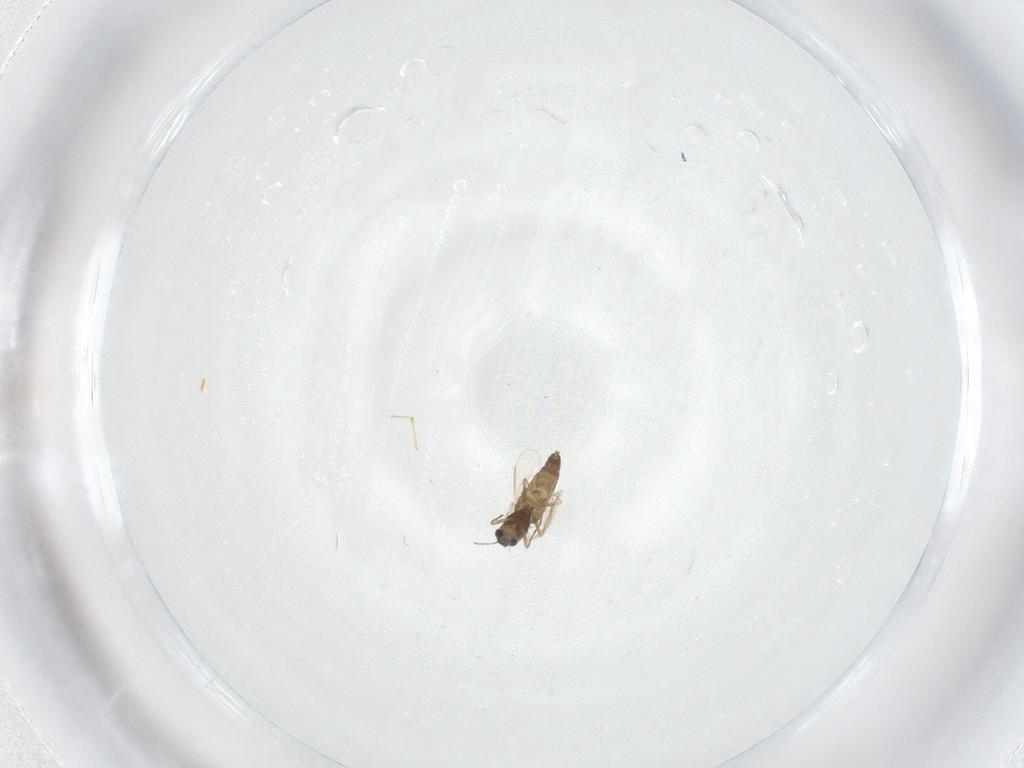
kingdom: Animalia
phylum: Arthropoda
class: Insecta
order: Diptera
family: Chironomidae
